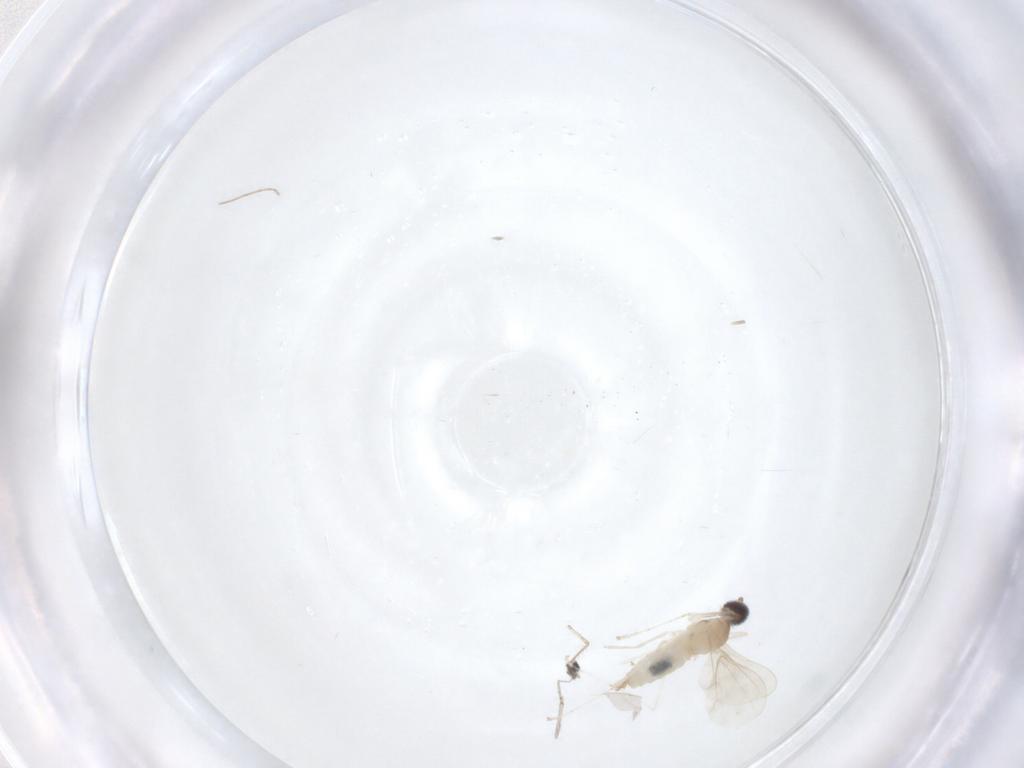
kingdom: Animalia
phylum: Arthropoda
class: Insecta
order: Diptera
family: Cecidomyiidae
